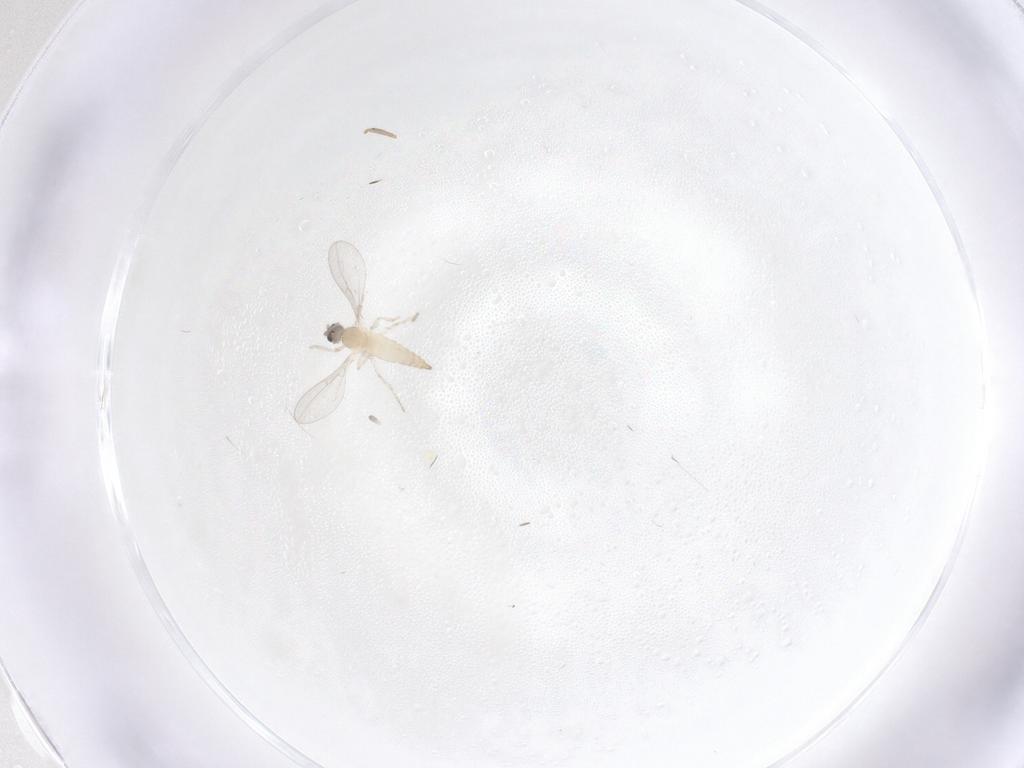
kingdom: Animalia
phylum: Arthropoda
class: Insecta
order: Diptera
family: Cecidomyiidae
